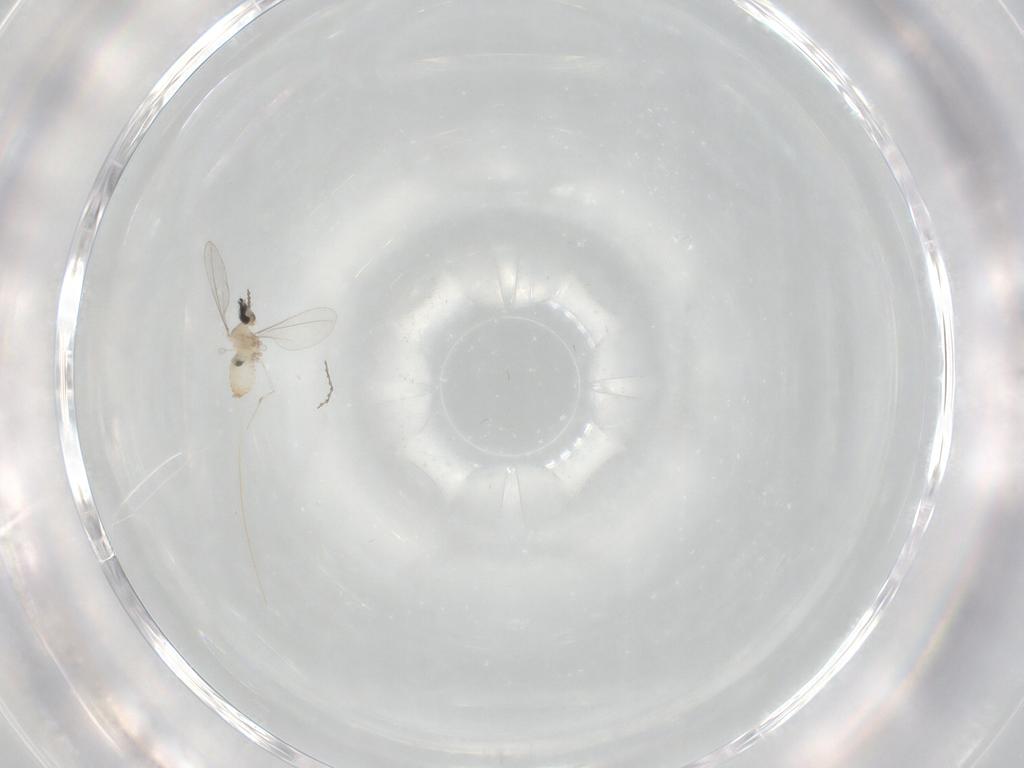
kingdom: Animalia
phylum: Arthropoda
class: Insecta
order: Diptera
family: Cecidomyiidae
